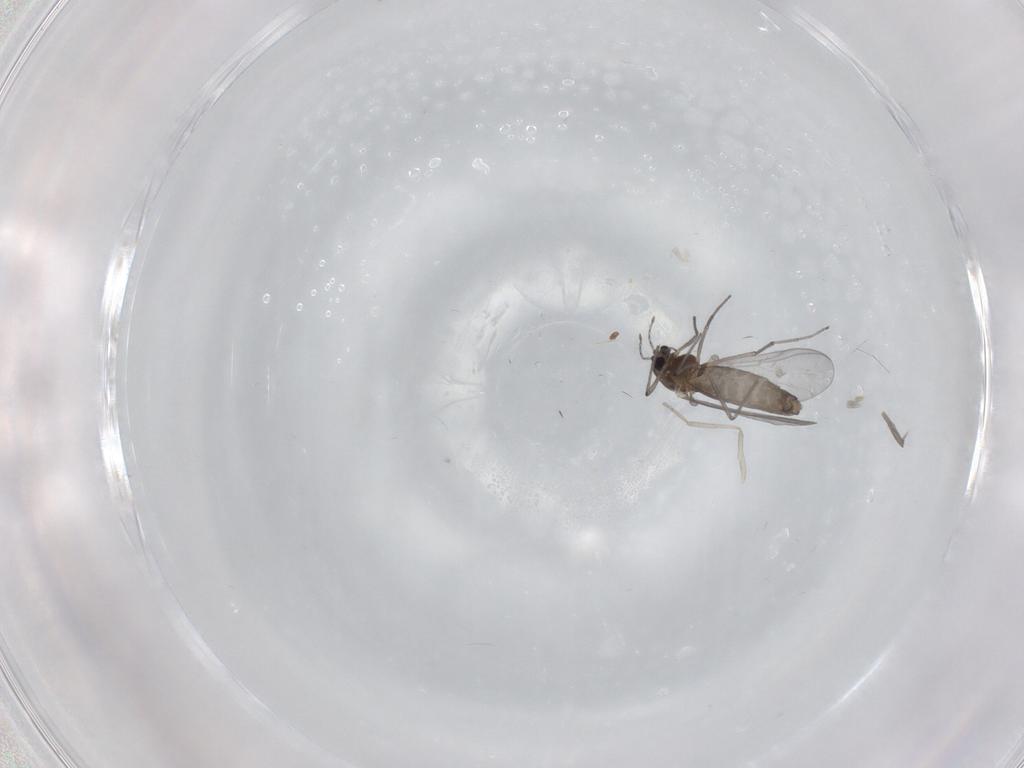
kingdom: Animalia
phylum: Arthropoda
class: Insecta
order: Diptera
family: Chironomidae
